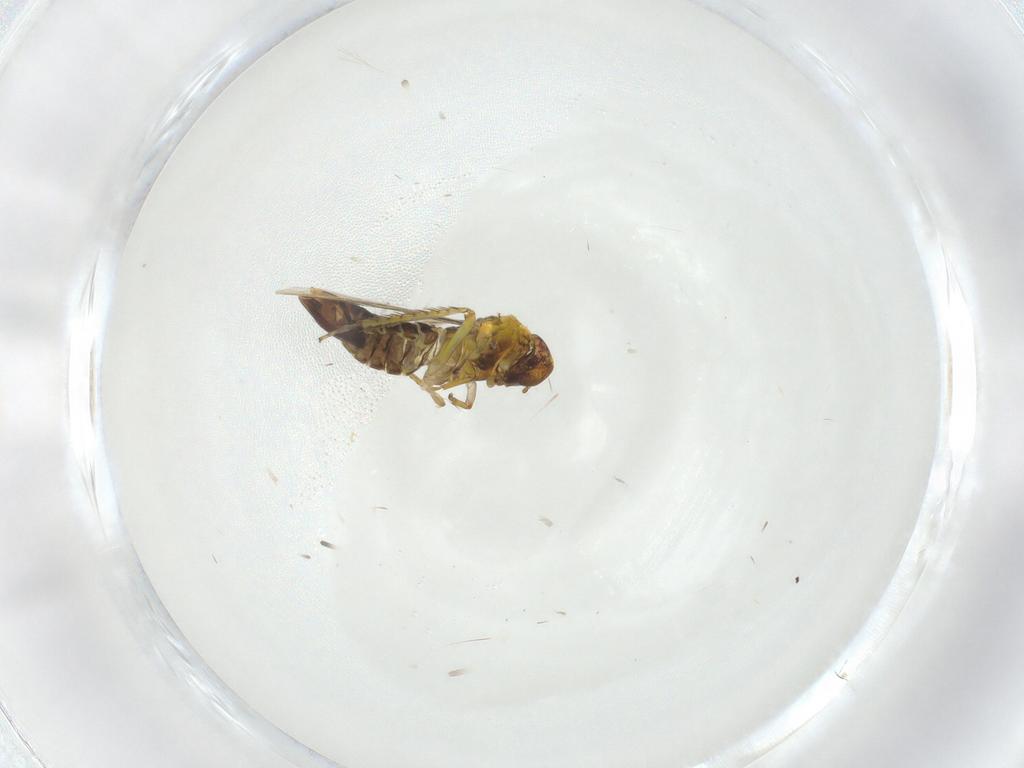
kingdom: Animalia
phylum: Arthropoda
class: Insecta
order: Hemiptera
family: Cicadellidae
